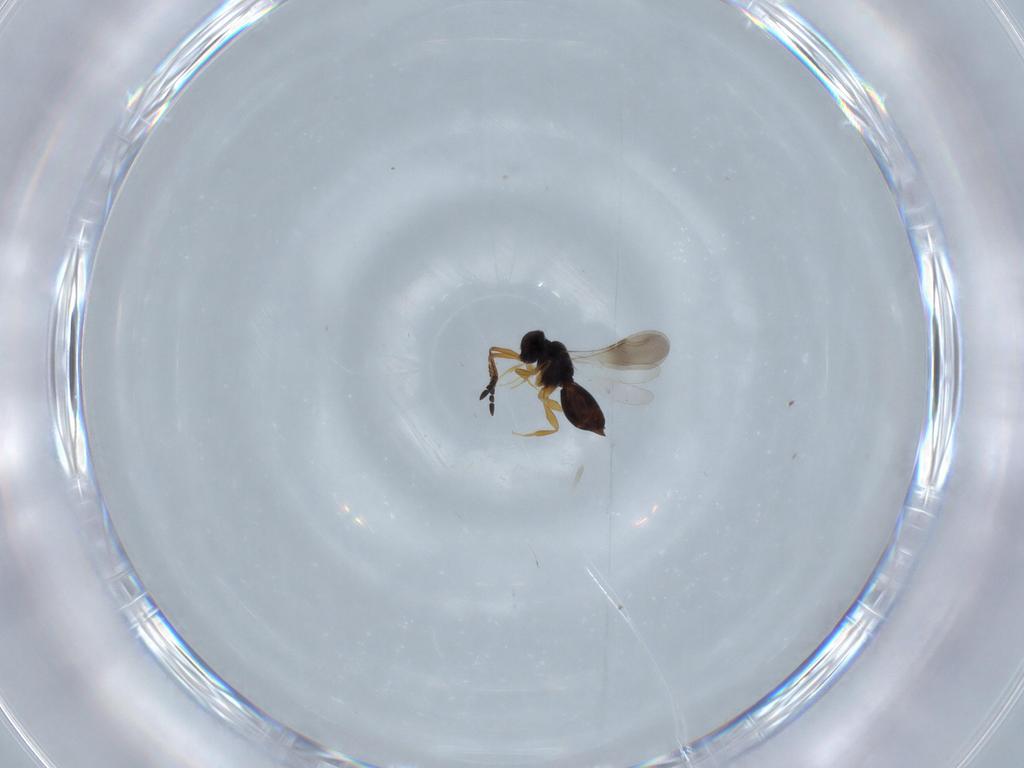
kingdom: Animalia
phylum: Arthropoda
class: Insecta
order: Hymenoptera
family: Formicidae
